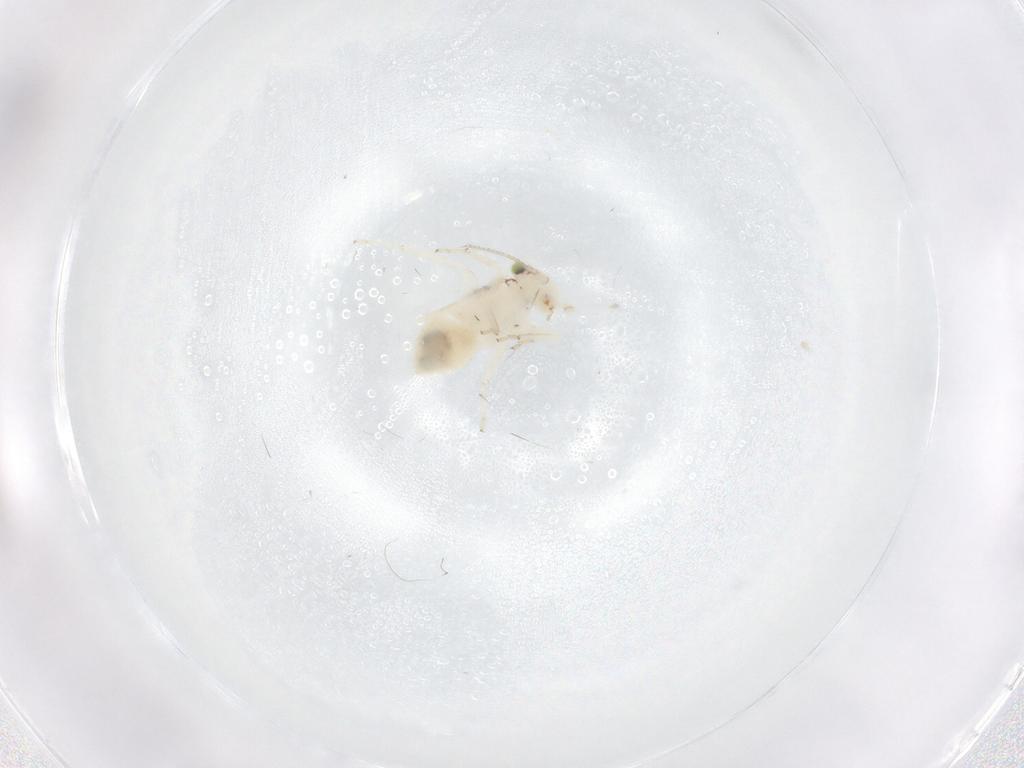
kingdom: Animalia
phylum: Arthropoda
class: Insecta
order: Psocodea
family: Lepidopsocidae
